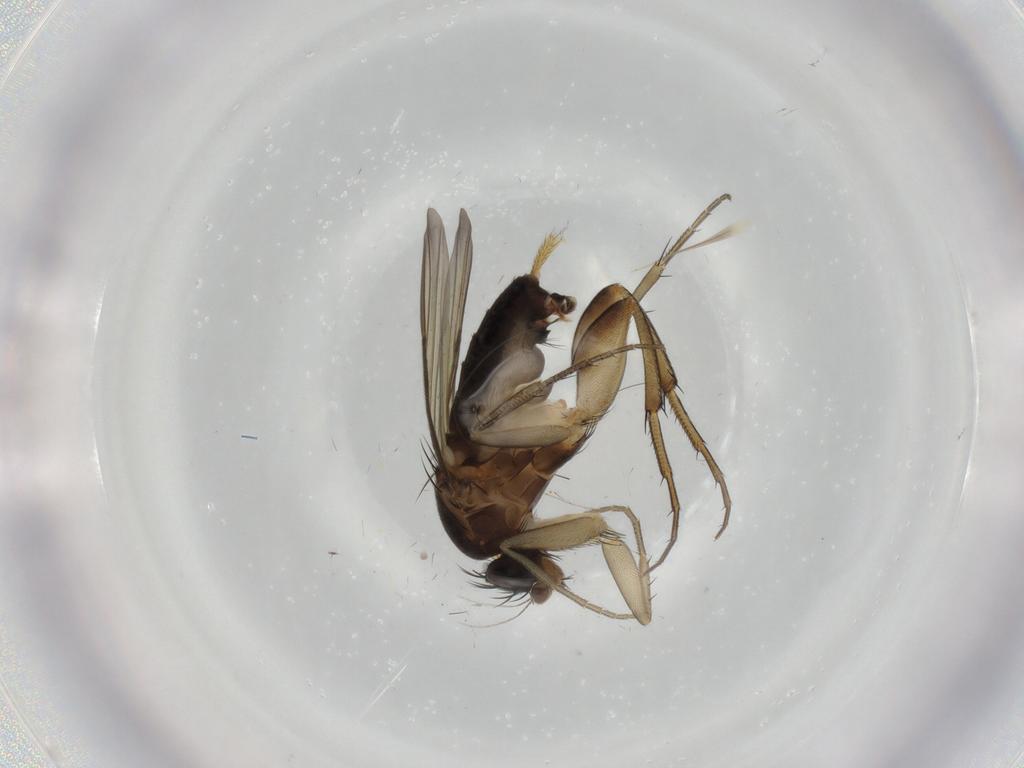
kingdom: Animalia
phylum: Arthropoda
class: Insecta
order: Diptera
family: Phoridae
